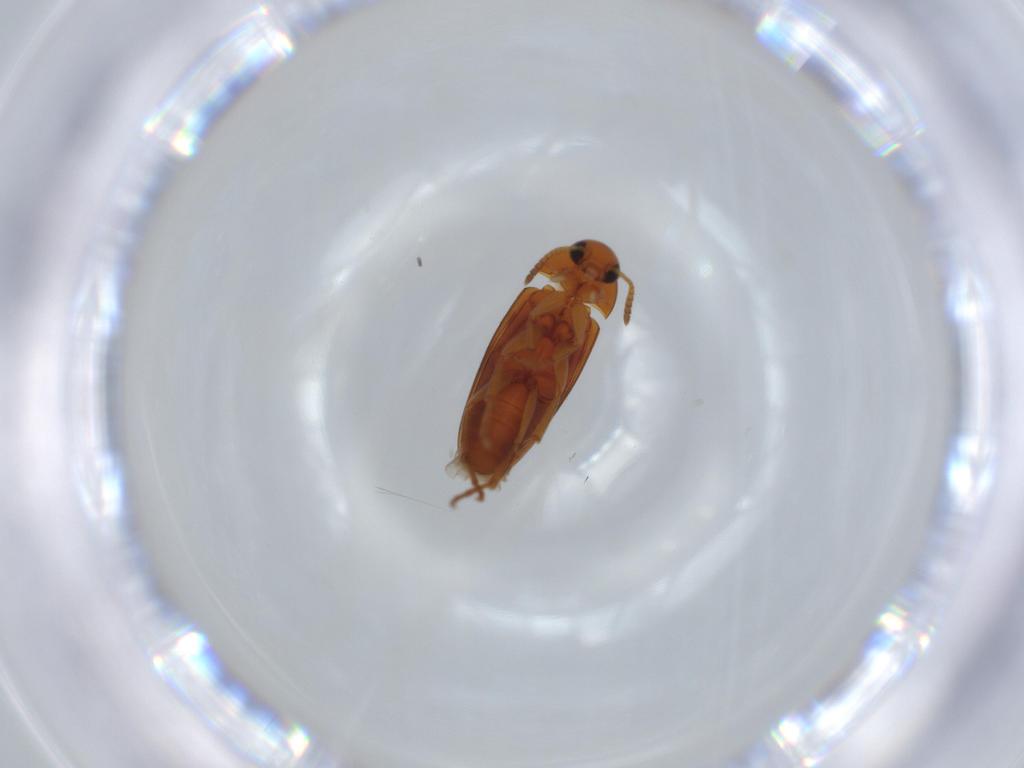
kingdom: Animalia
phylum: Arthropoda
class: Insecta
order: Coleoptera
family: Scraptiidae
